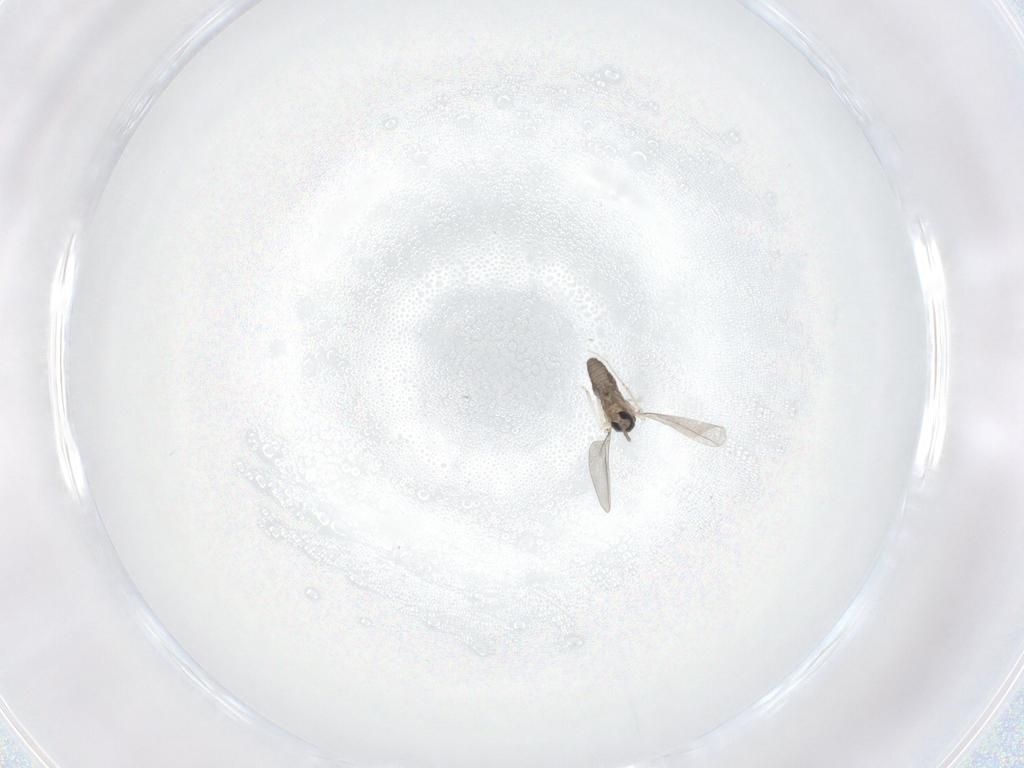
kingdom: Animalia
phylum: Arthropoda
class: Insecta
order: Diptera
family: Cecidomyiidae
